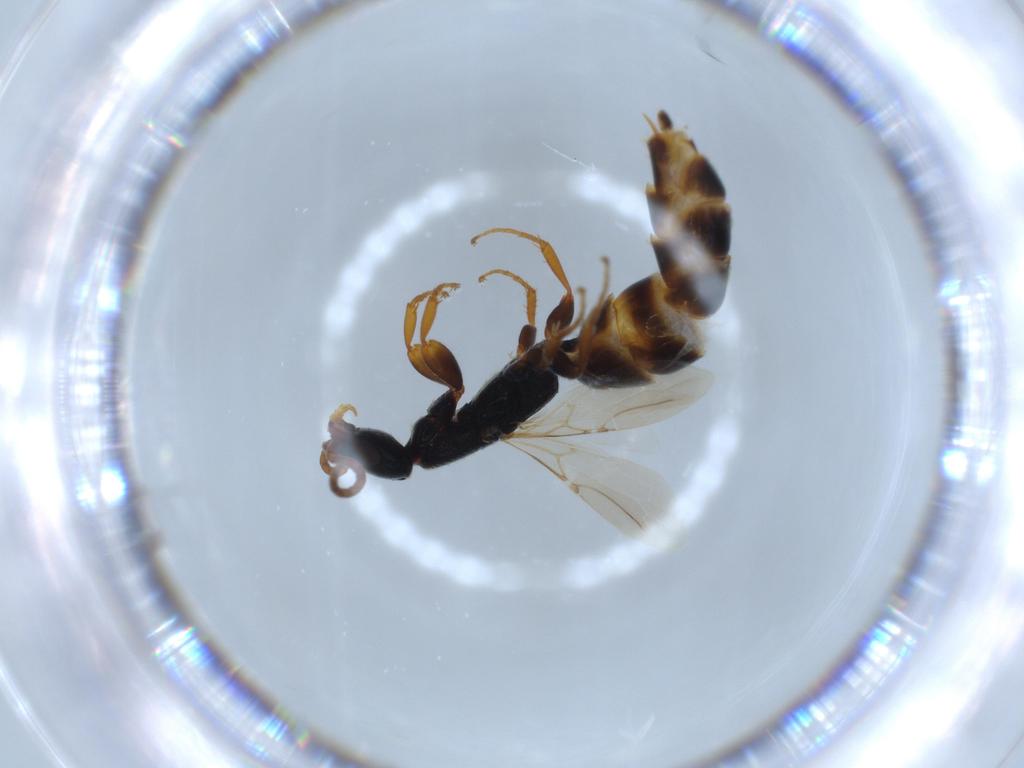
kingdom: Animalia
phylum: Arthropoda
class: Insecta
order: Hymenoptera
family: Bethylidae
